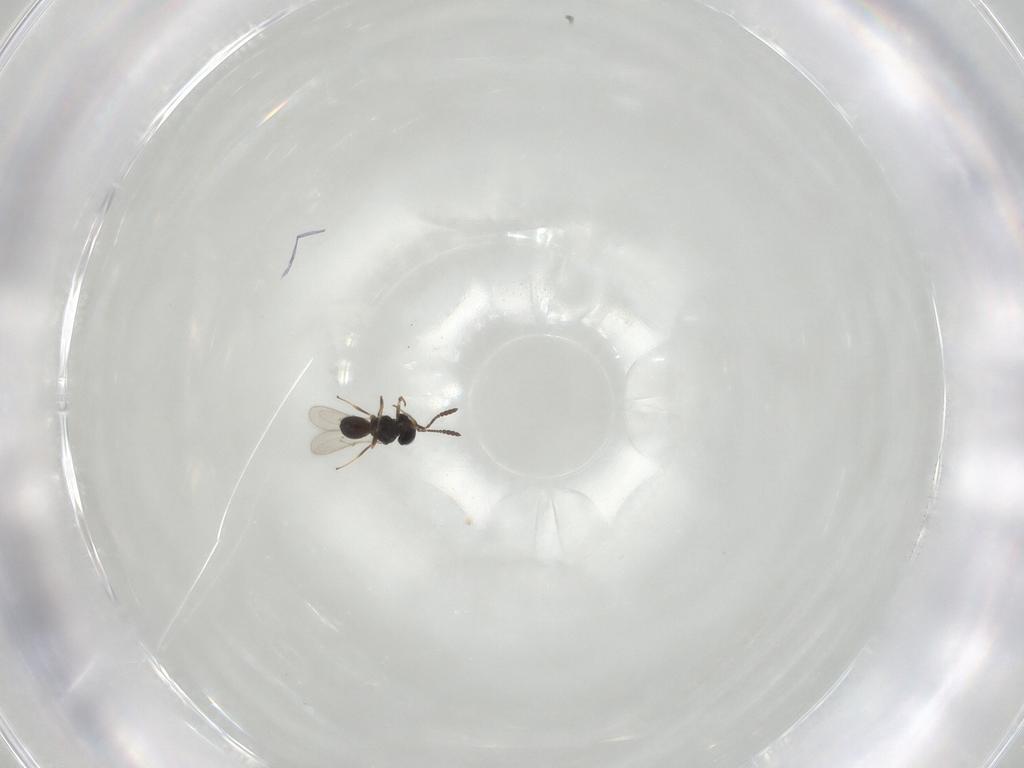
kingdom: Animalia
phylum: Arthropoda
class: Insecta
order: Hymenoptera
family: Scelionidae
